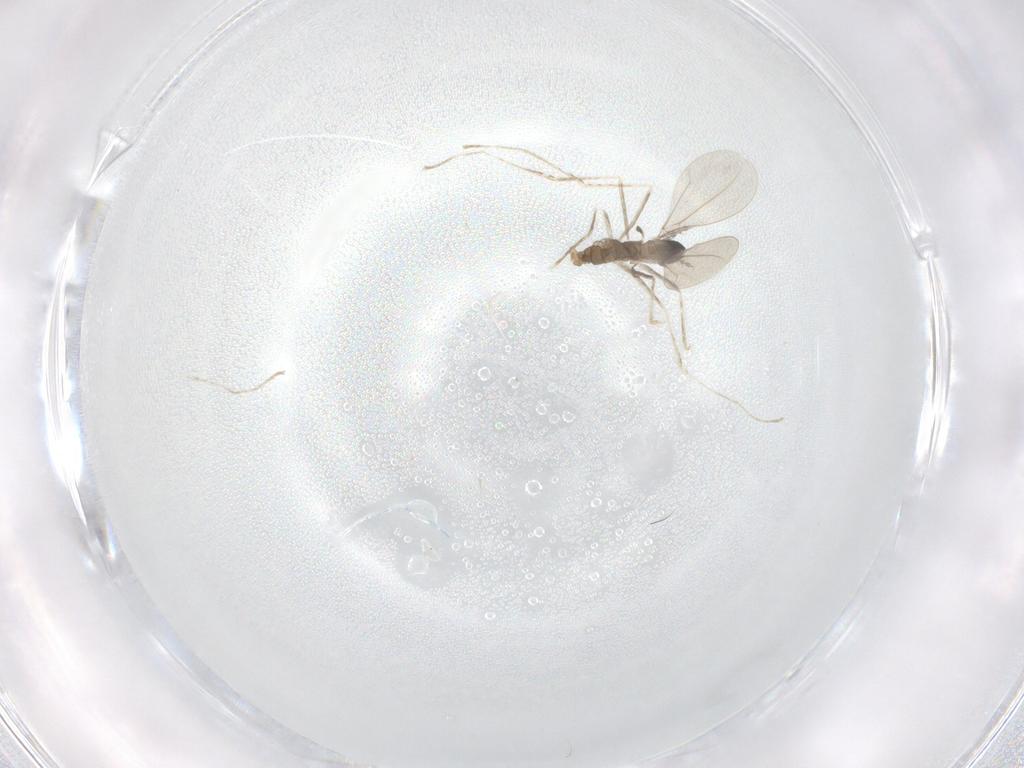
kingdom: Animalia
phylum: Arthropoda
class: Insecta
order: Diptera
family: Cecidomyiidae
